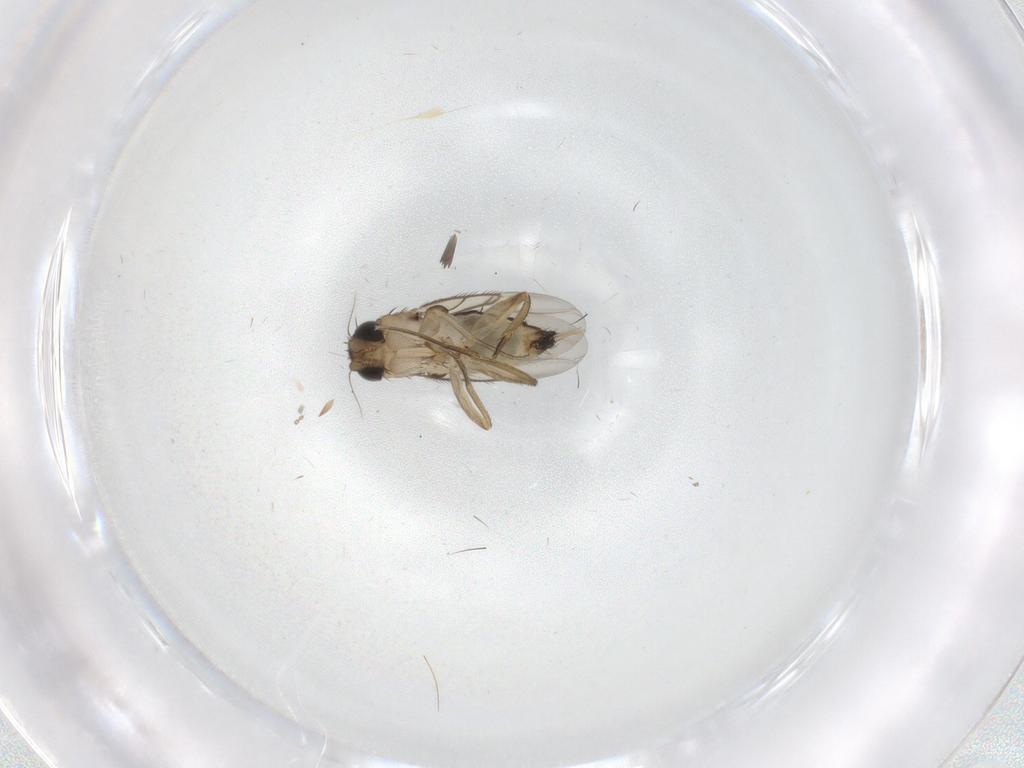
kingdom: Animalia
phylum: Arthropoda
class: Insecta
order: Diptera
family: Phoridae
